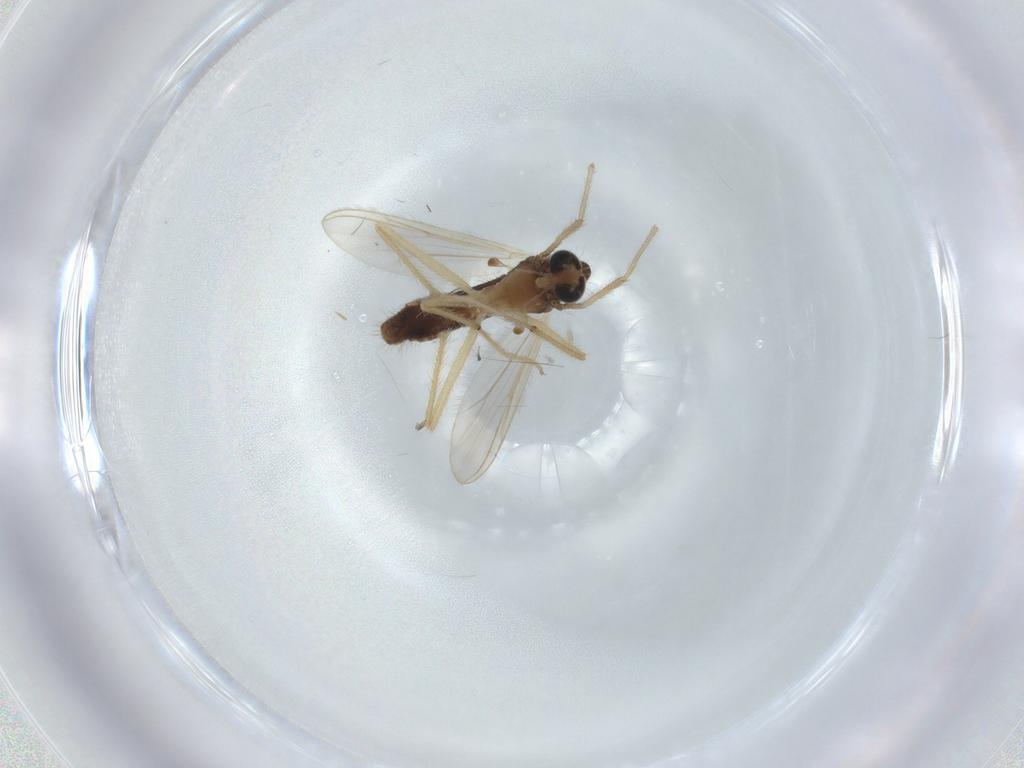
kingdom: Animalia
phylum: Arthropoda
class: Insecta
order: Diptera
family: Chironomidae
